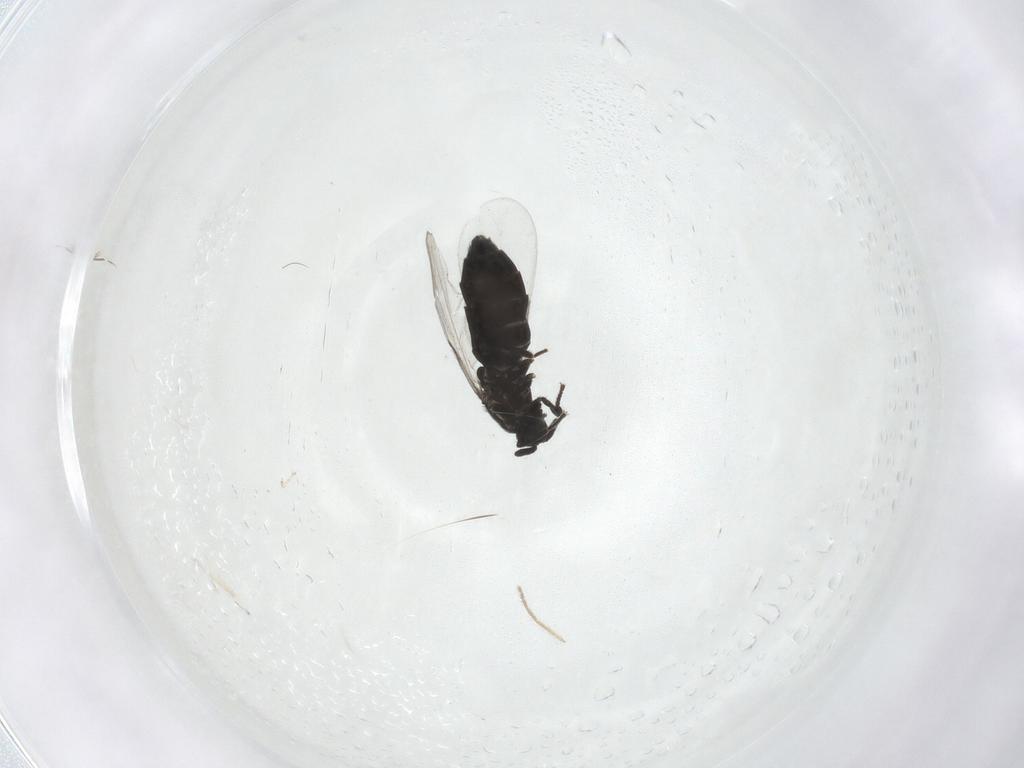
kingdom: Animalia
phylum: Arthropoda
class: Insecta
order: Diptera
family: Scatopsidae
